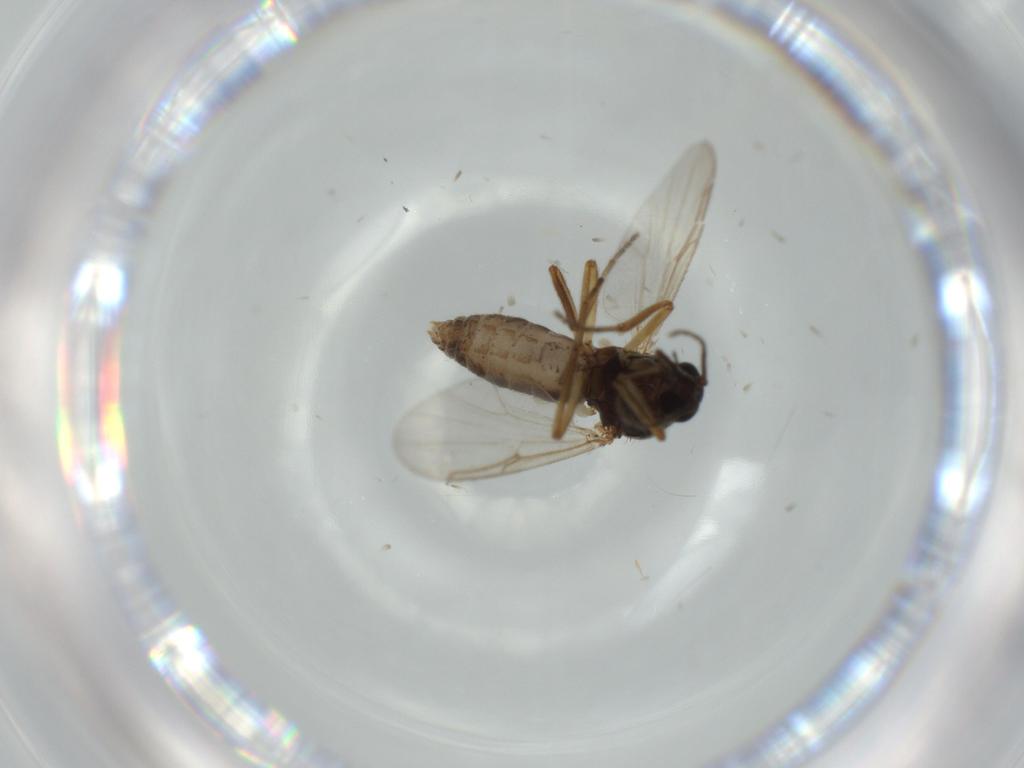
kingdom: Animalia
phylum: Arthropoda
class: Insecta
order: Diptera
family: Ceratopogonidae
